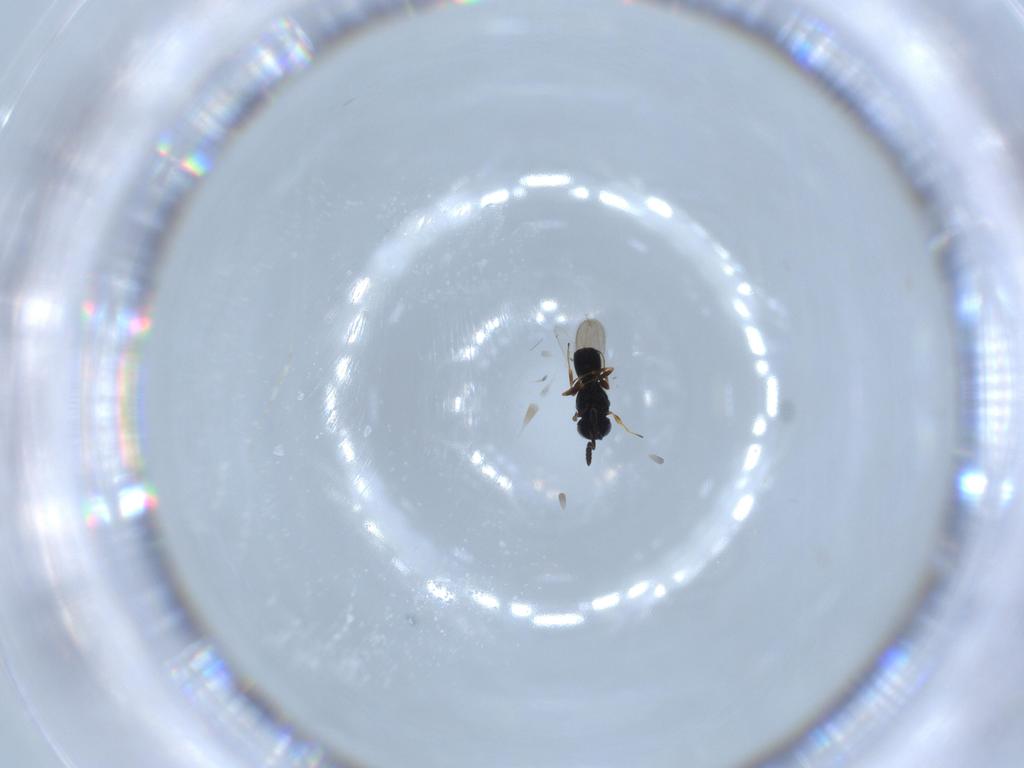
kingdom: Animalia
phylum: Arthropoda
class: Insecta
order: Hymenoptera
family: Scelionidae
